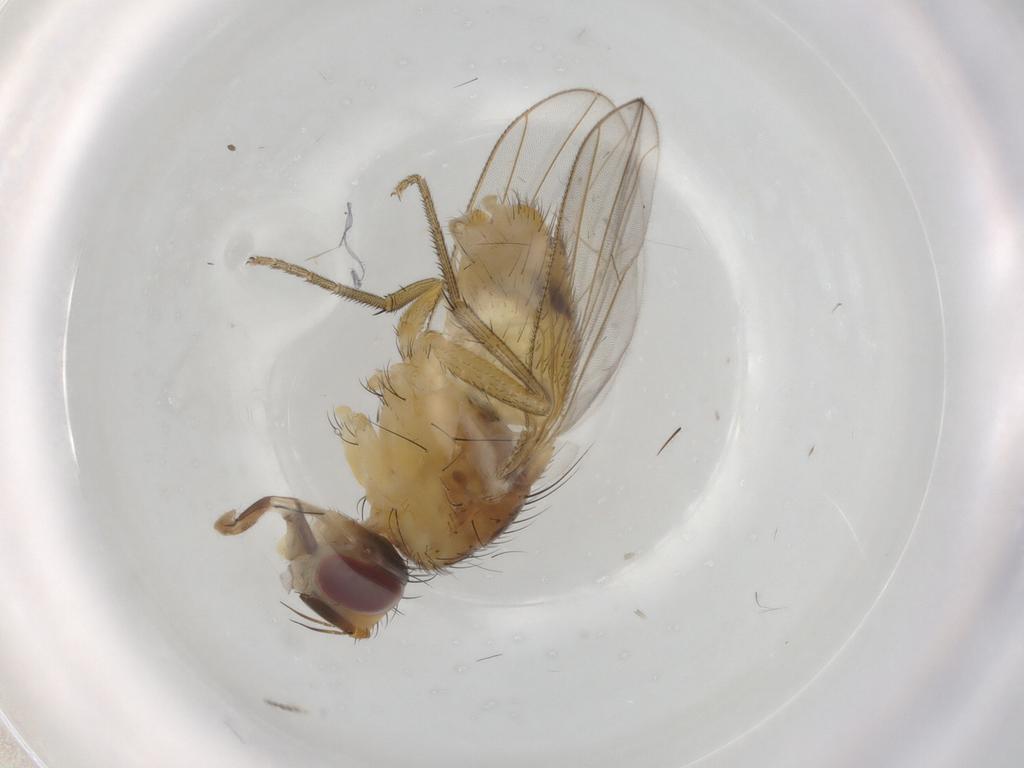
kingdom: Animalia
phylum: Arthropoda
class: Insecta
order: Diptera
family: Muscidae
